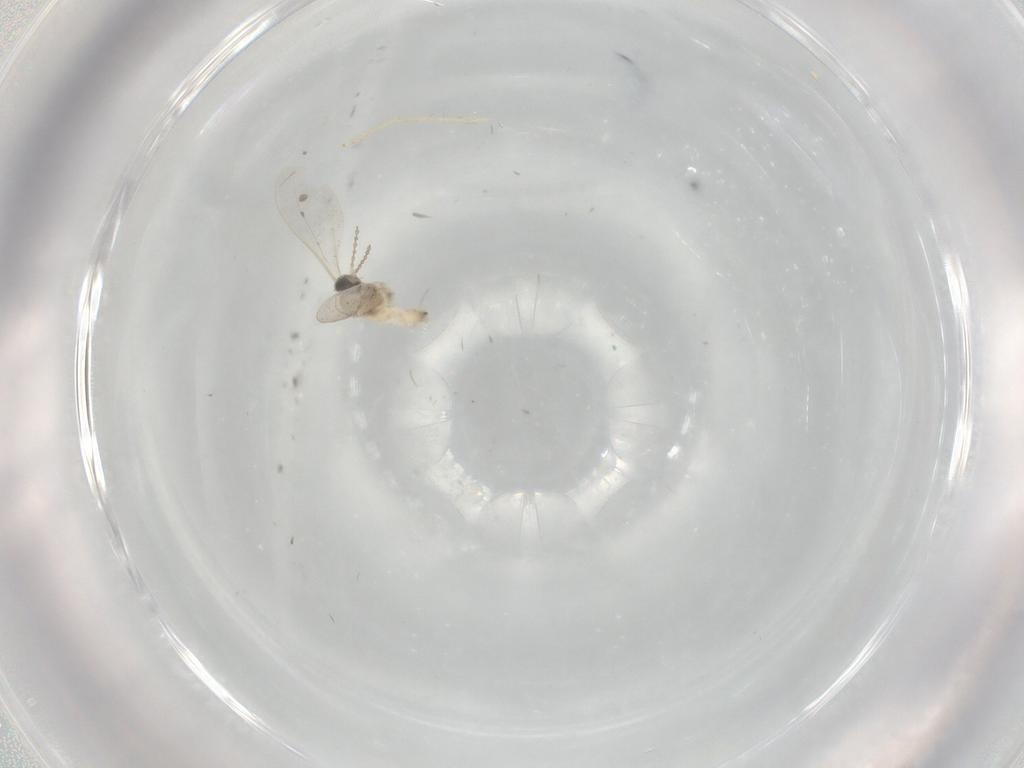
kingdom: Animalia
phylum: Arthropoda
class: Insecta
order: Diptera
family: Cecidomyiidae
